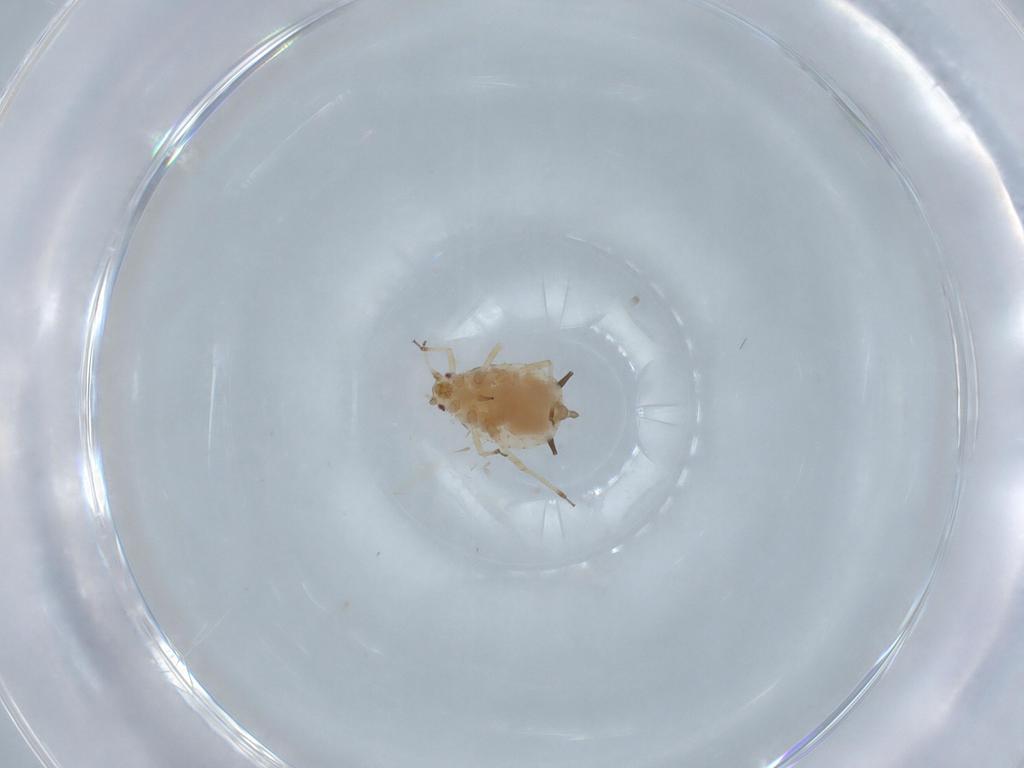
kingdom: Animalia
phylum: Arthropoda
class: Insecta
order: Hemiptera
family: Aphididae
